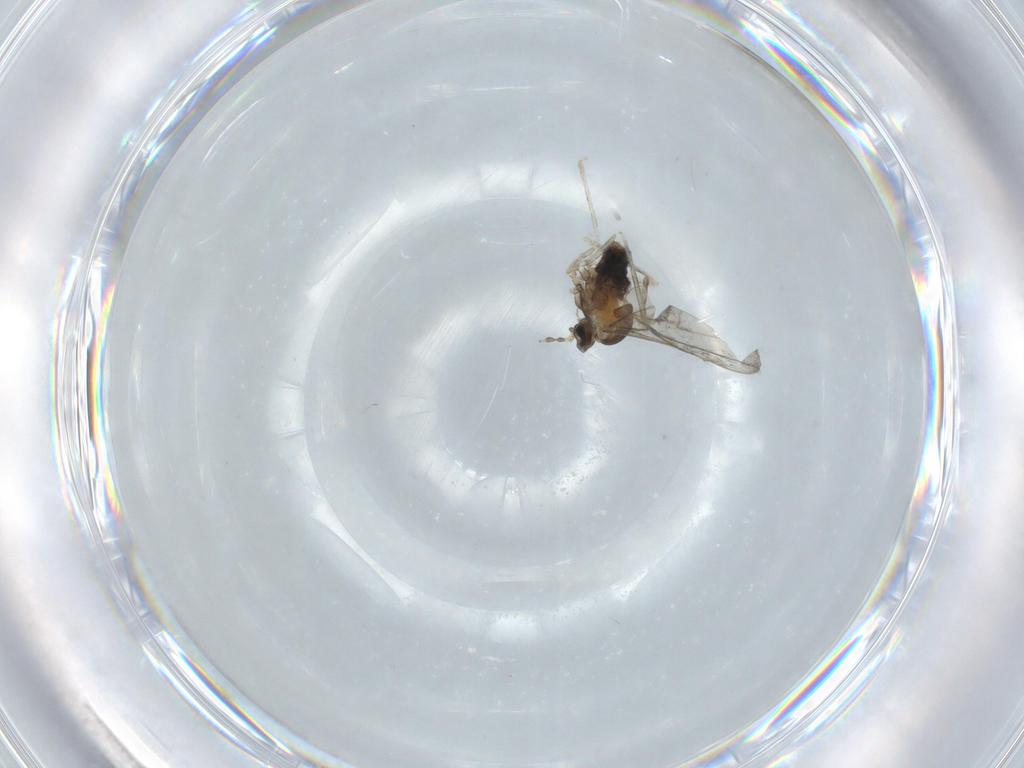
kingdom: Animalia
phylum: Arthropoda
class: Insecta
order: Diptera
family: Cecidomyiidae
